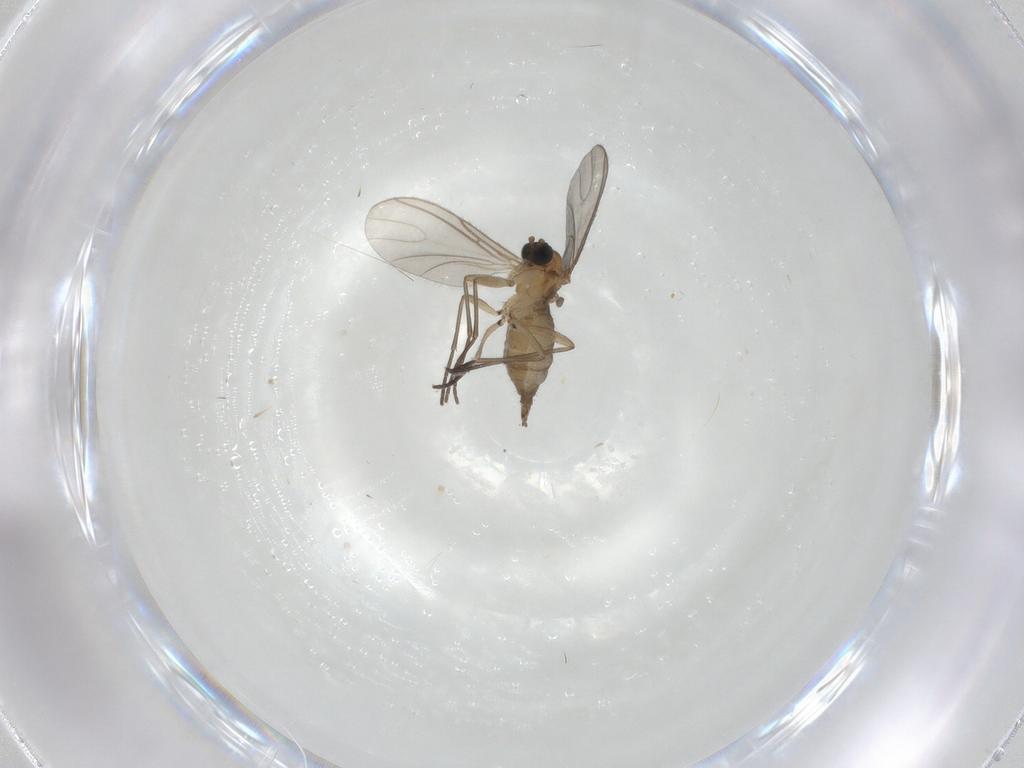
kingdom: Animalia
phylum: Arthropoda
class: Insecta
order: Diptera
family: Sciaridae
